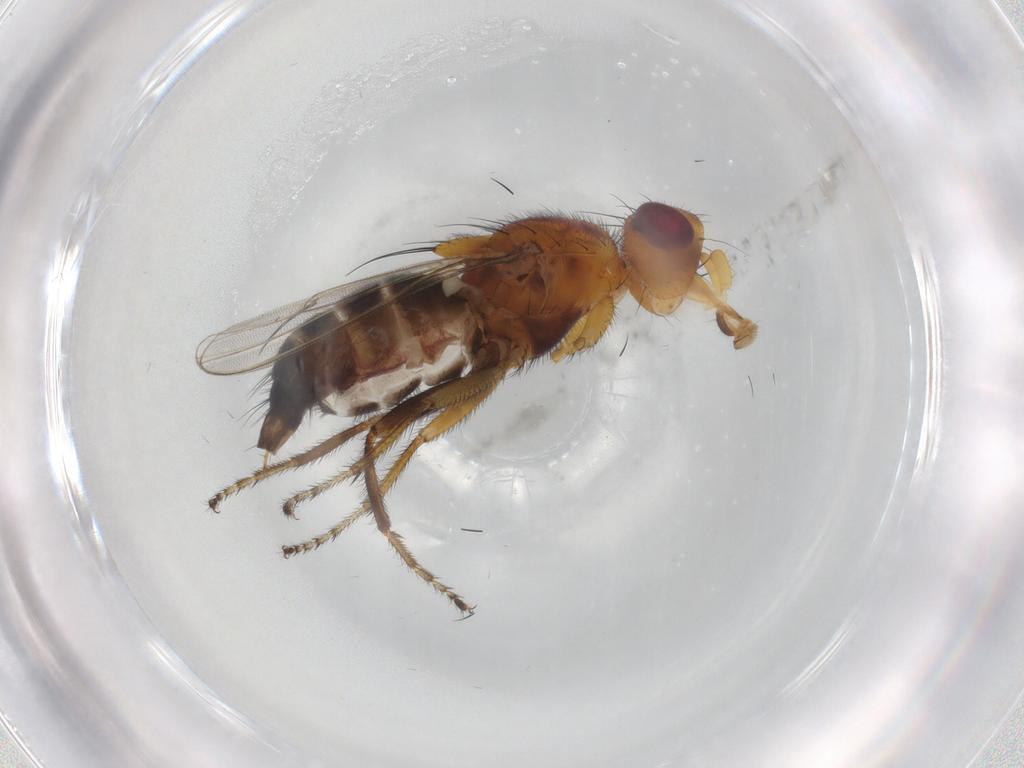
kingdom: Animalia
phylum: Arthropoda
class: Insecta
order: Diptera
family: Piophilidae
